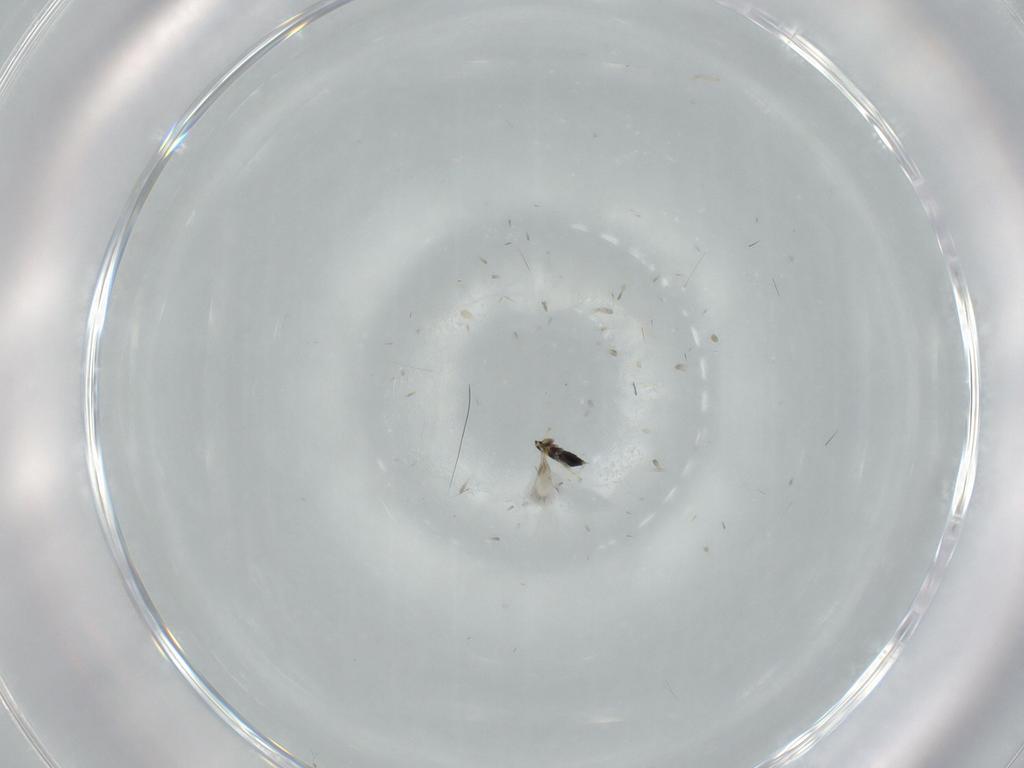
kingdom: Animalia
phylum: Arthropoda
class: Insecta
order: Hymenoptera
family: Signiphoridae
